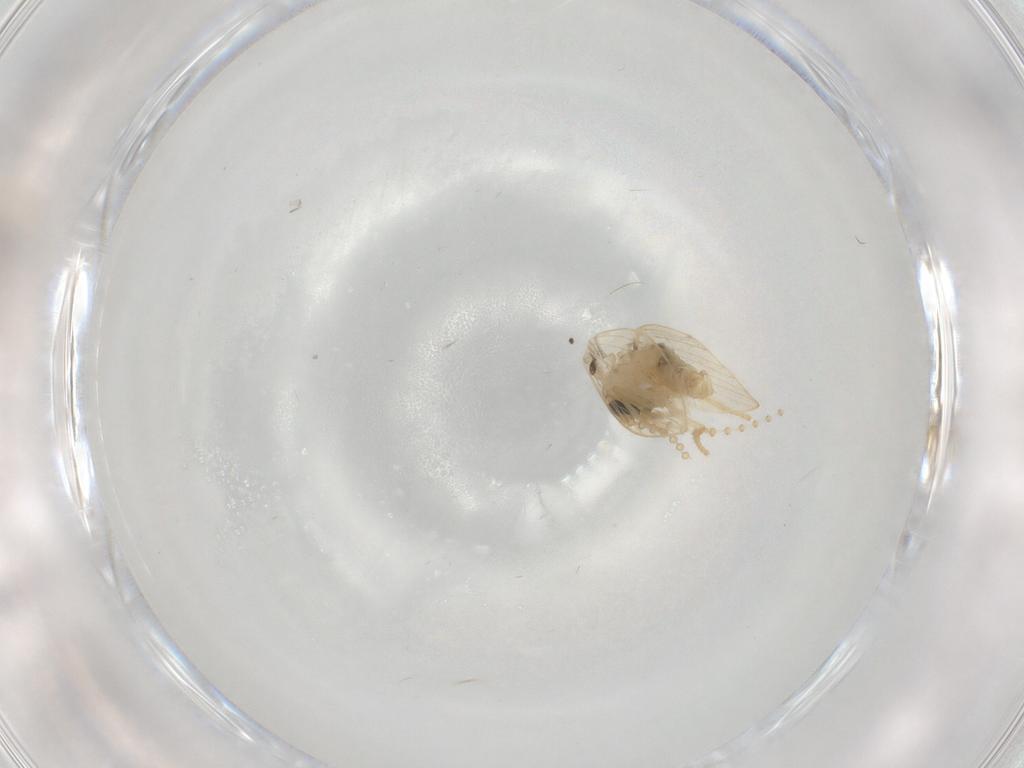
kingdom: Animalia
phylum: Arthropoda
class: Insecta
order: Diptera
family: Psychodidae
